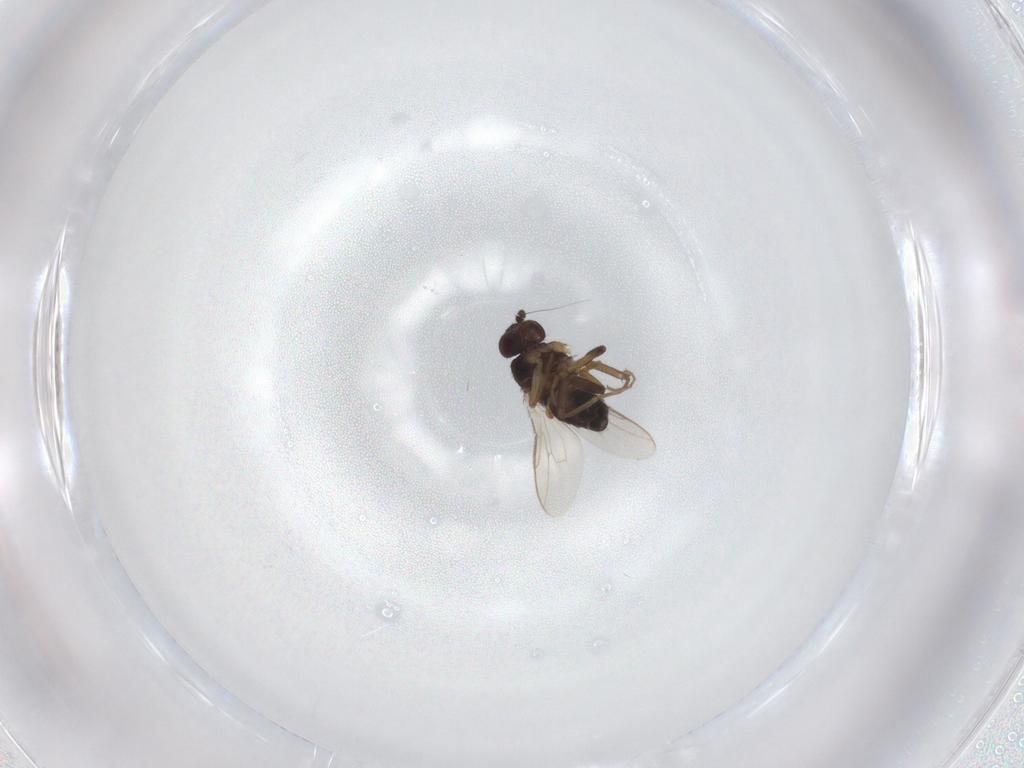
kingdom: Animalia
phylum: Arthropoda
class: Insecta
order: Diptera
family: Sphaeroceridae
